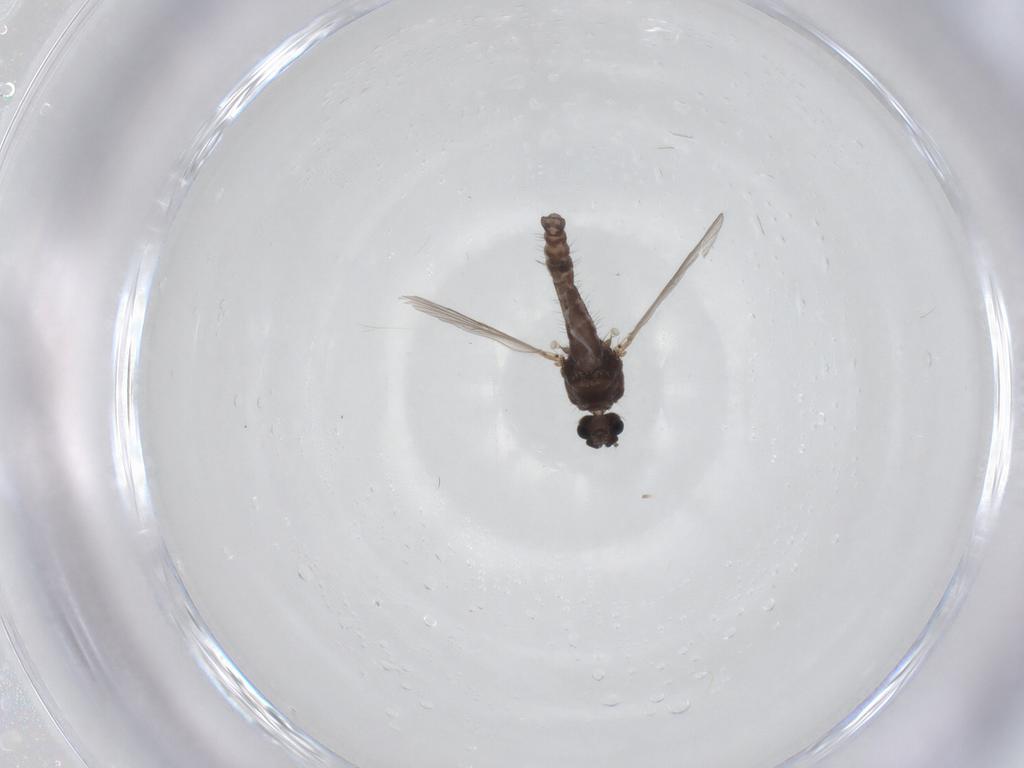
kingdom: Animalia
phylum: Arthropoda
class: Insecta
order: Diptera
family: Ceratopogonidae
